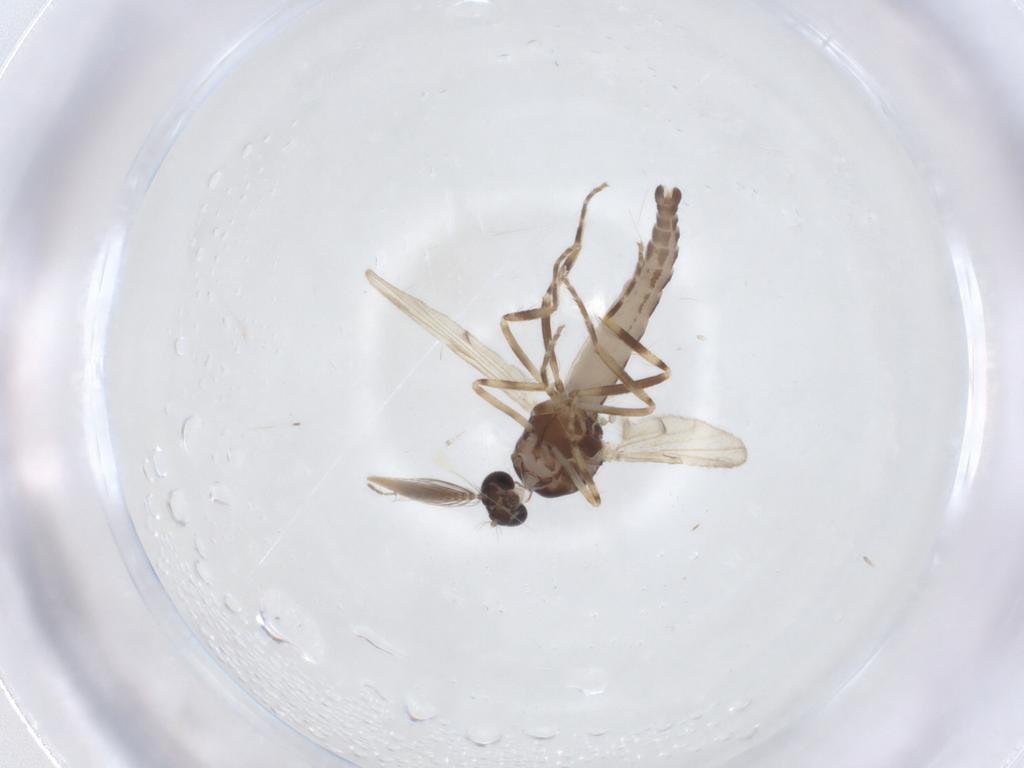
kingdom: Animalia
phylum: Arthropoda
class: Insecta
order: Diptera
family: Ceratopogonidae
